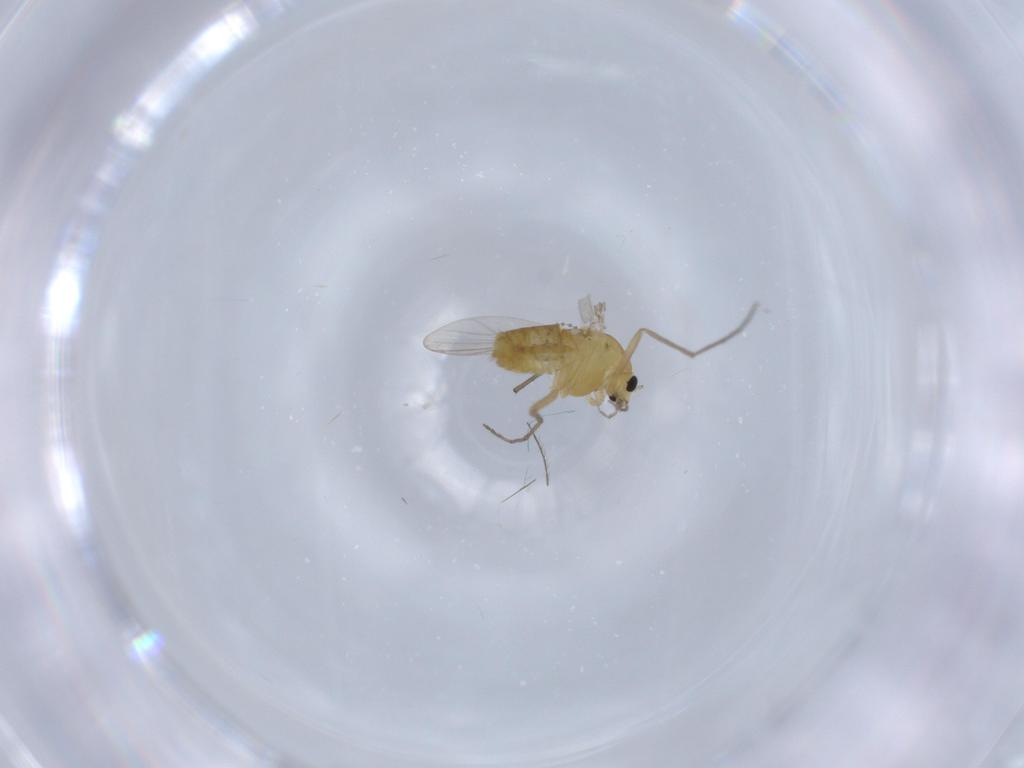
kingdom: Animalia
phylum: Arthropoda
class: Insecta
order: Diptera
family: Chironomidae
